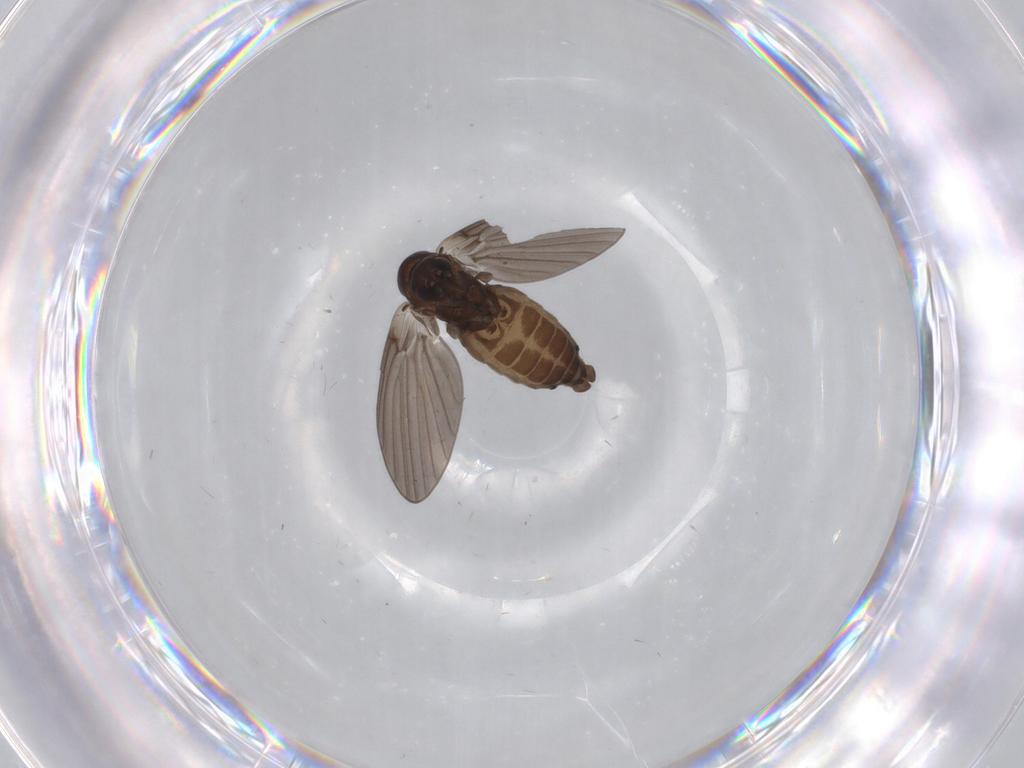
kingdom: Animalia
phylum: Arthropoda
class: Insecta
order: Diptera
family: Psychodidae
